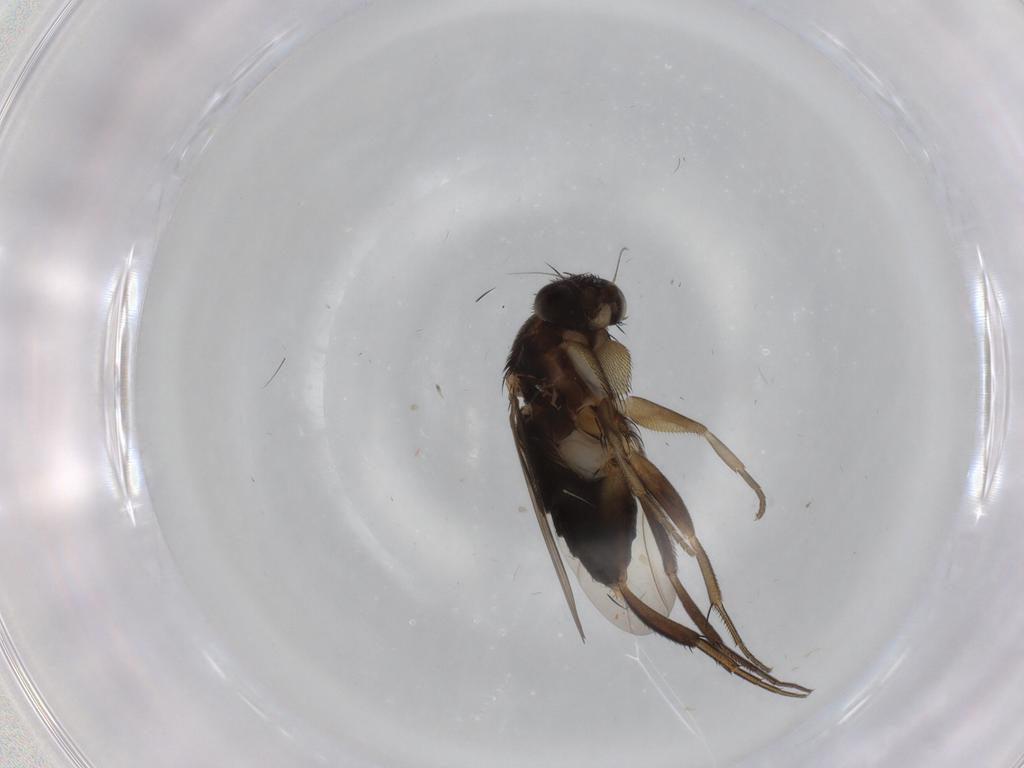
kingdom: Animalia
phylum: Arthropoda
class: Insecta
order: Diptera
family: Phoridae
